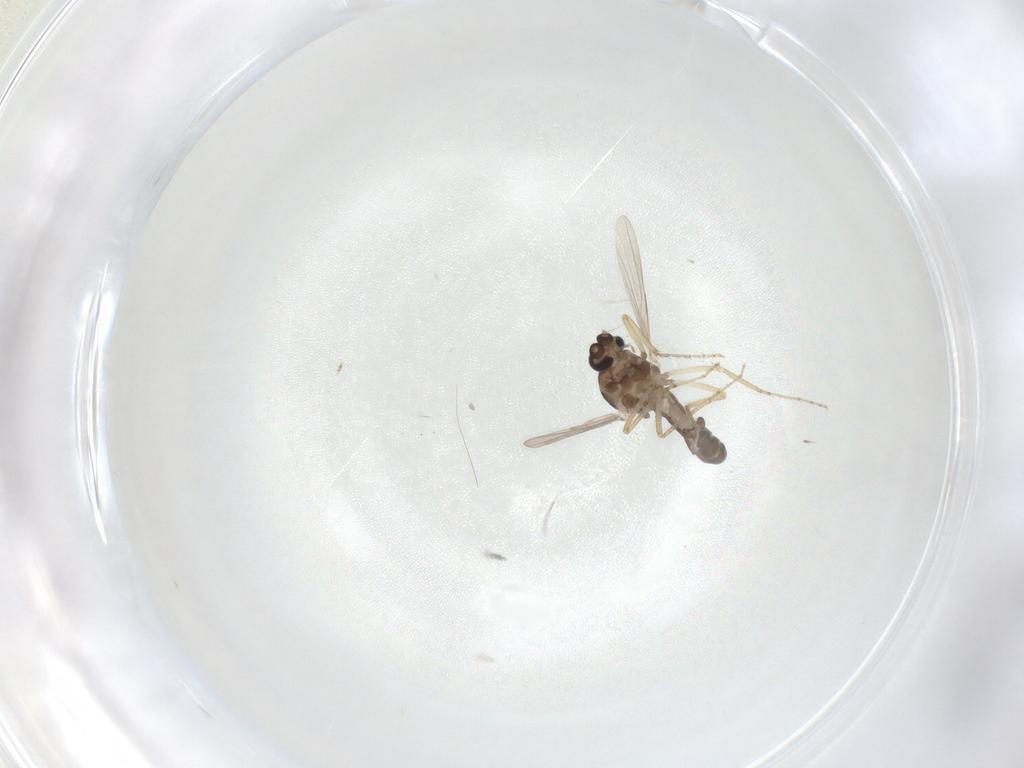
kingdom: Animalia
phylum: Arthropoda
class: Insecta
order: Diptera
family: Ceratopogonidae
